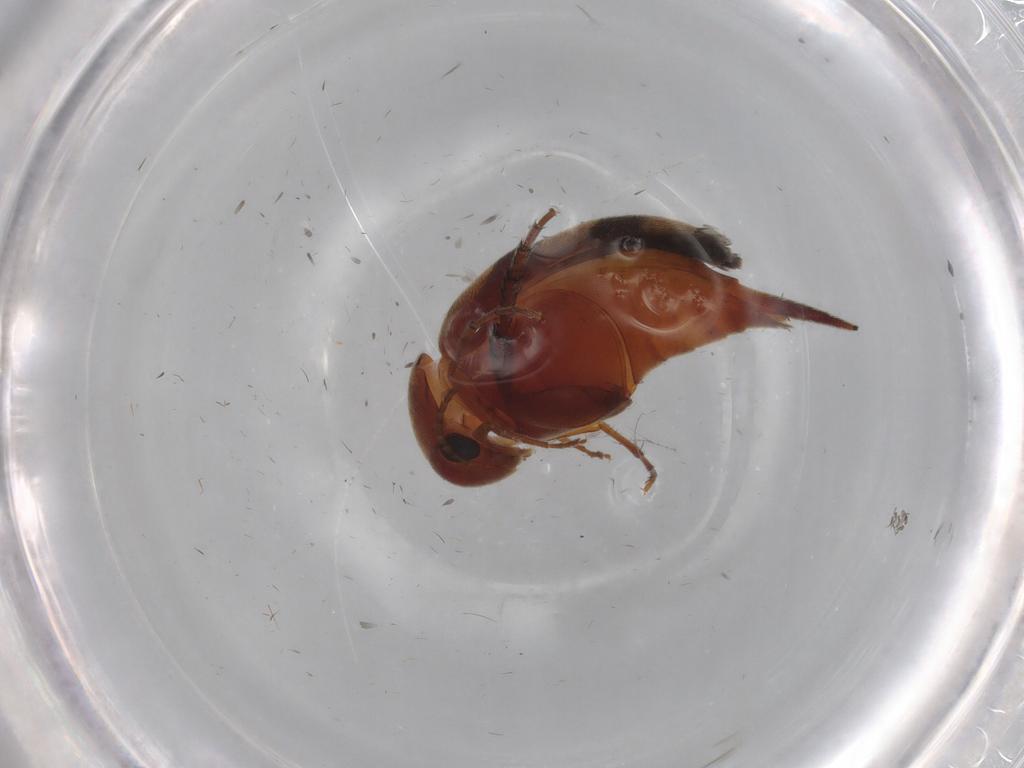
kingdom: Animalia
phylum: Arthropoda
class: Insecta
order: Coleoptera
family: Mordellidae
